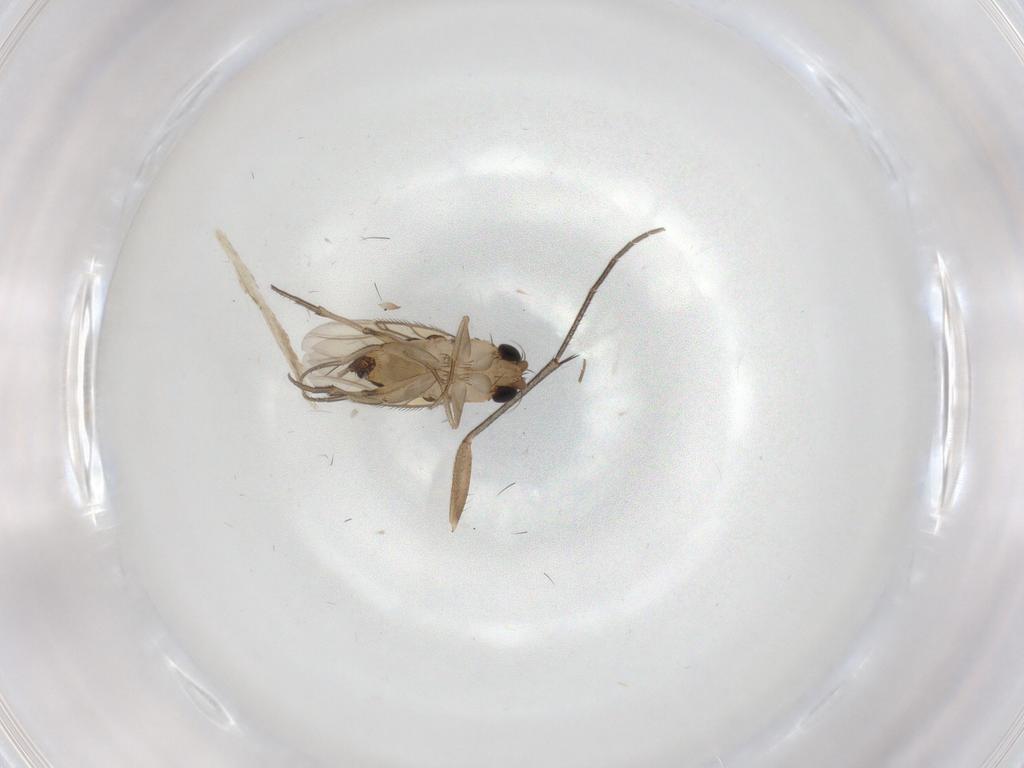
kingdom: Animalia
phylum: Arthropoda
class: Insecta
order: Diptera
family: Phoridae
